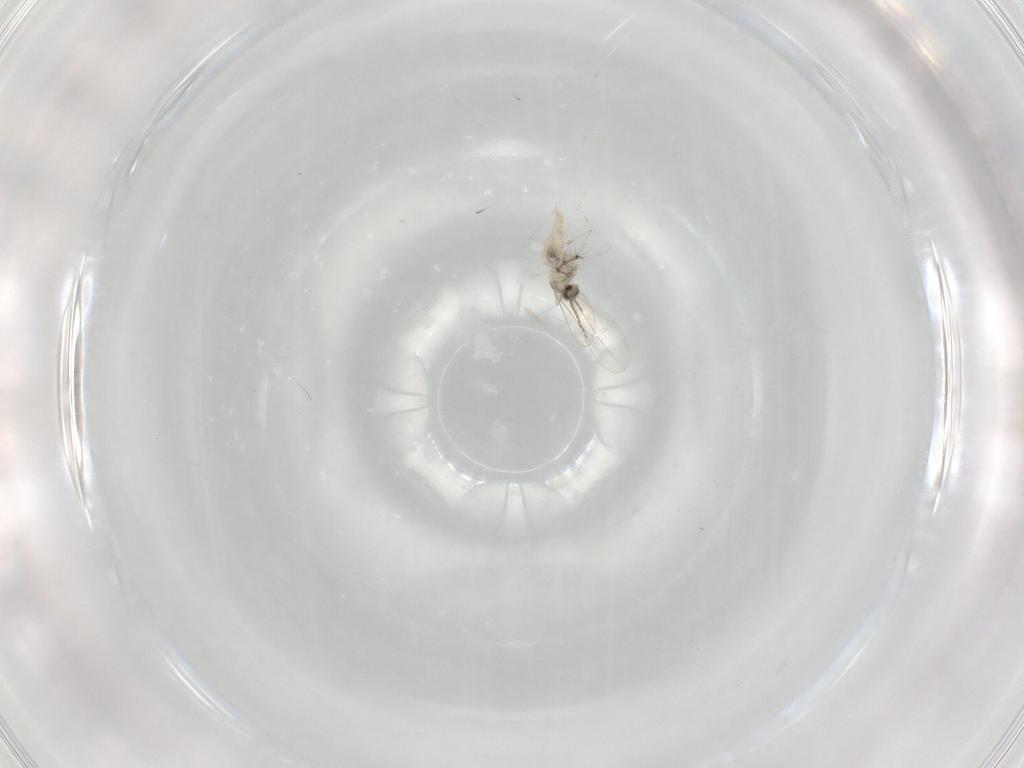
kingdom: Animalia
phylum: Arthropoda
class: Insecta
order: Diptera
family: Cecidomyiidae
